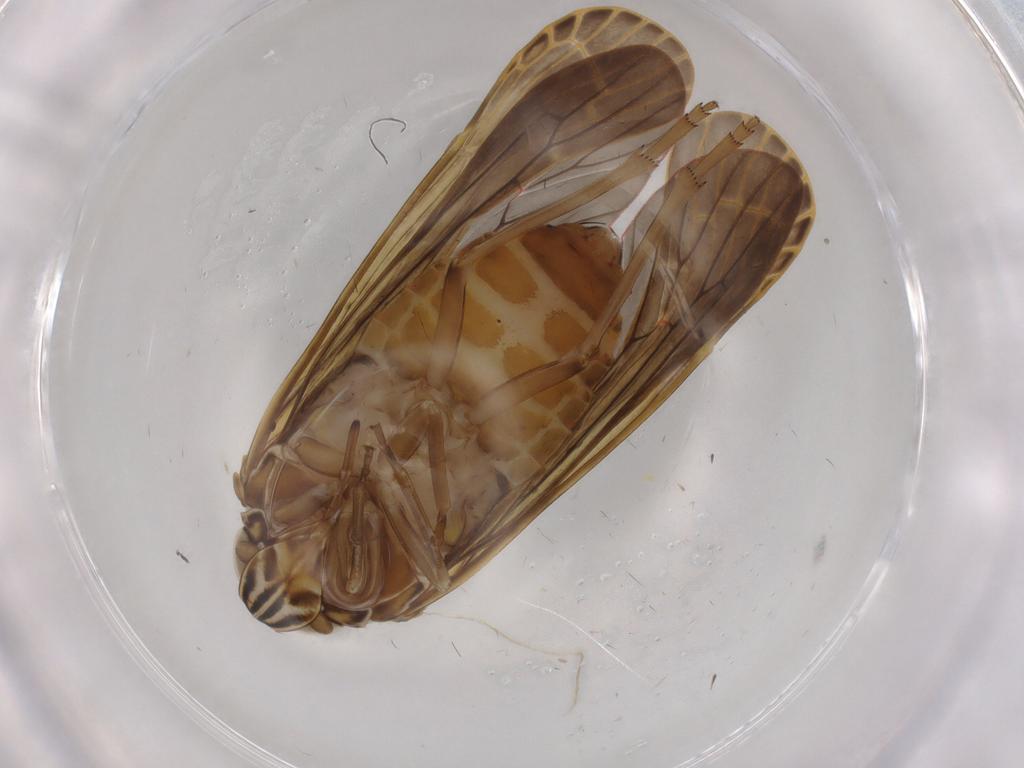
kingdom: Animalia
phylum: Arthropoda
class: Insecta
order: Hemiptera
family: Achilidae
